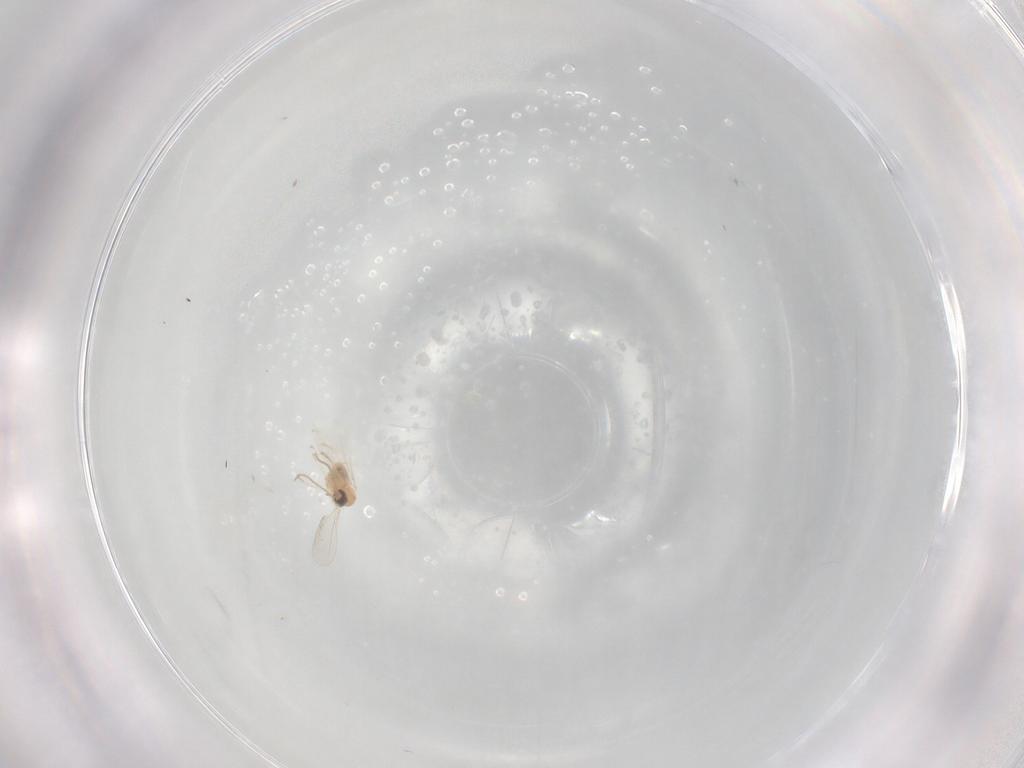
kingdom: Animalia
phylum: Arthropoda
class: Insecta
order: Diptera
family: Cecidomyiidae
